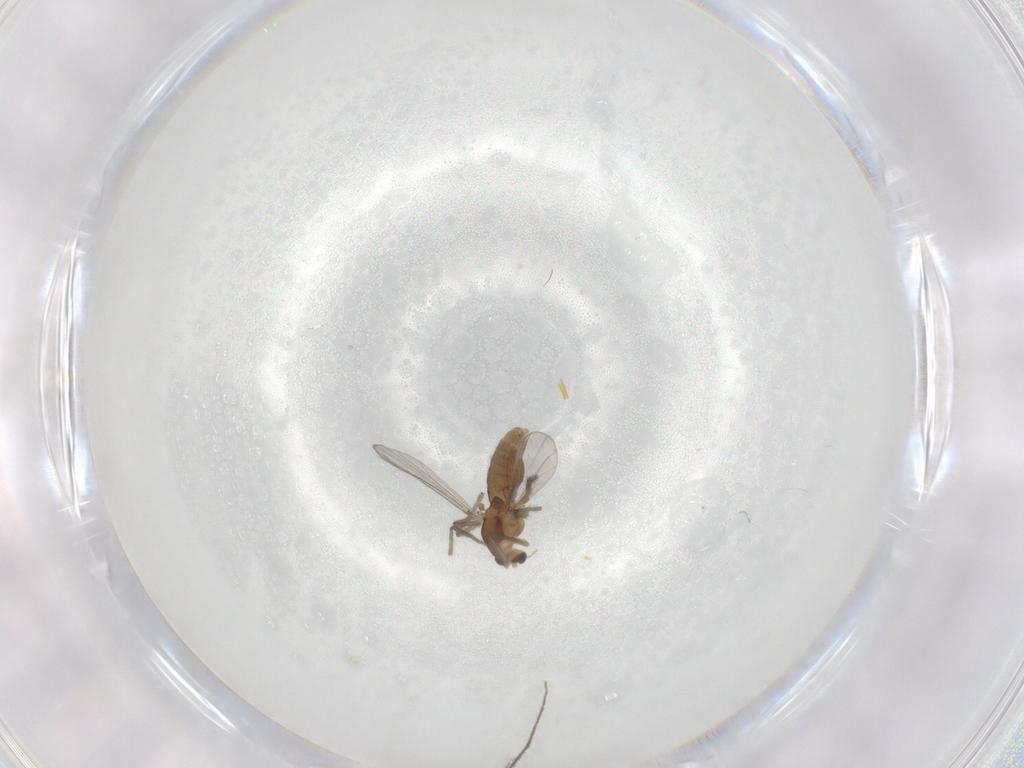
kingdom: Animalia
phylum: Arthropoda
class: Insecta
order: Diptera
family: Chironomidae
